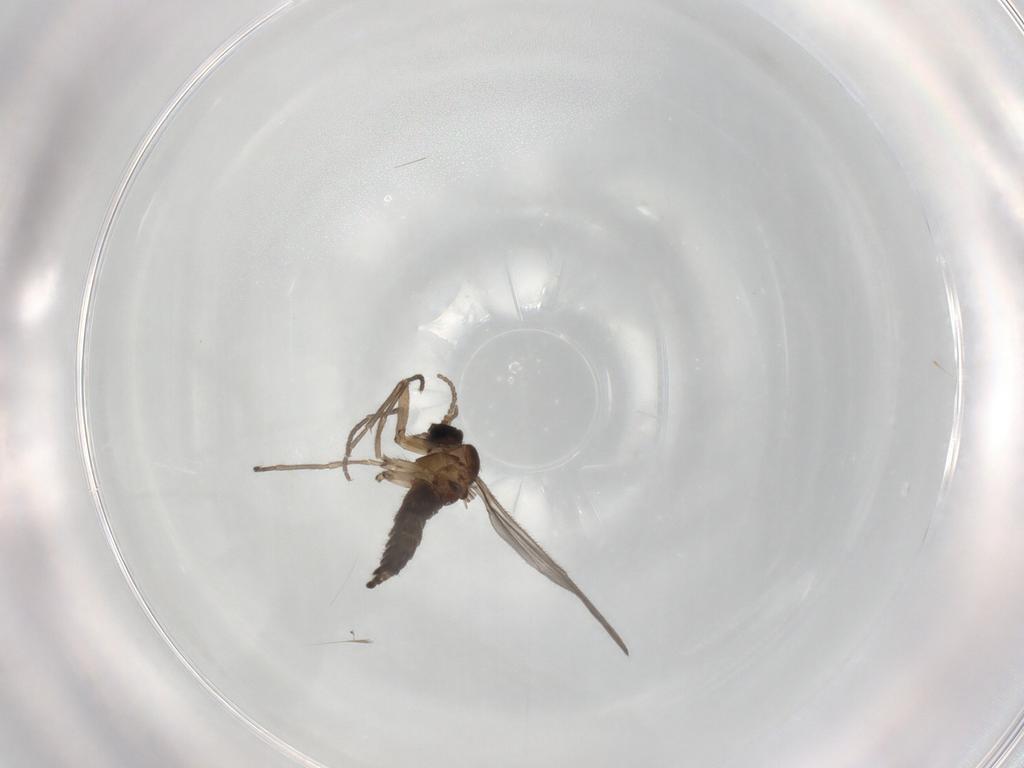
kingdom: Animalia
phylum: Arthropoda
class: Insecta
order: Diptera
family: Sciaridae
